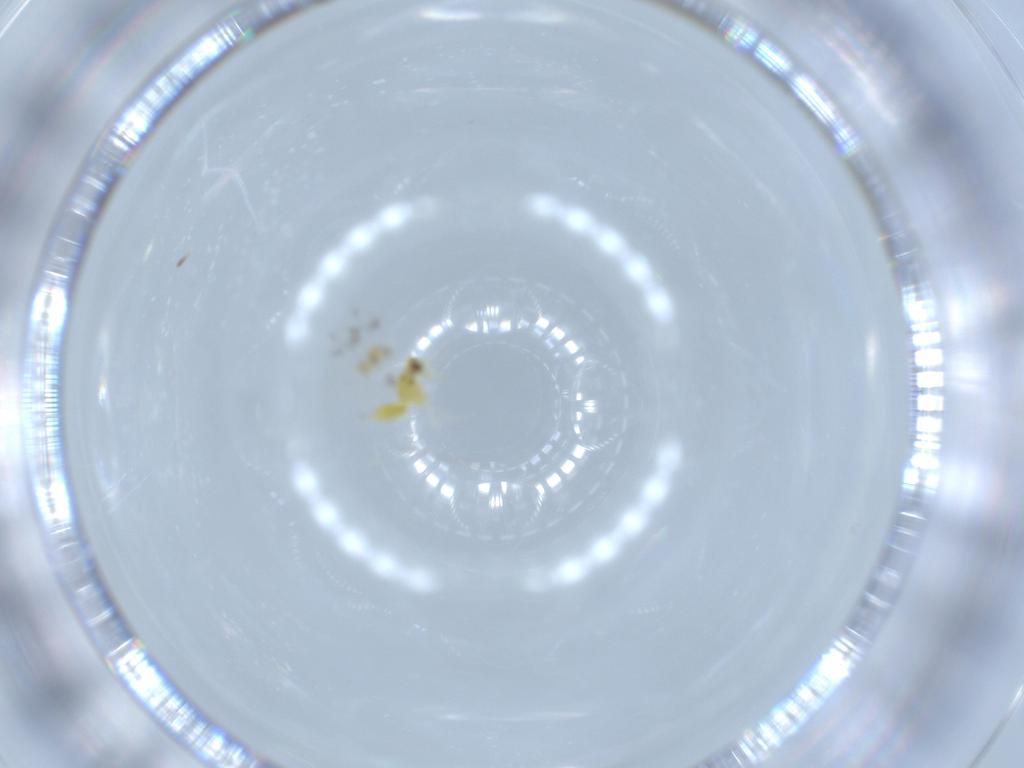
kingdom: Animalia
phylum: Arthropoda
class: Insecta
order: Hemiptera
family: Aleyrodidae
